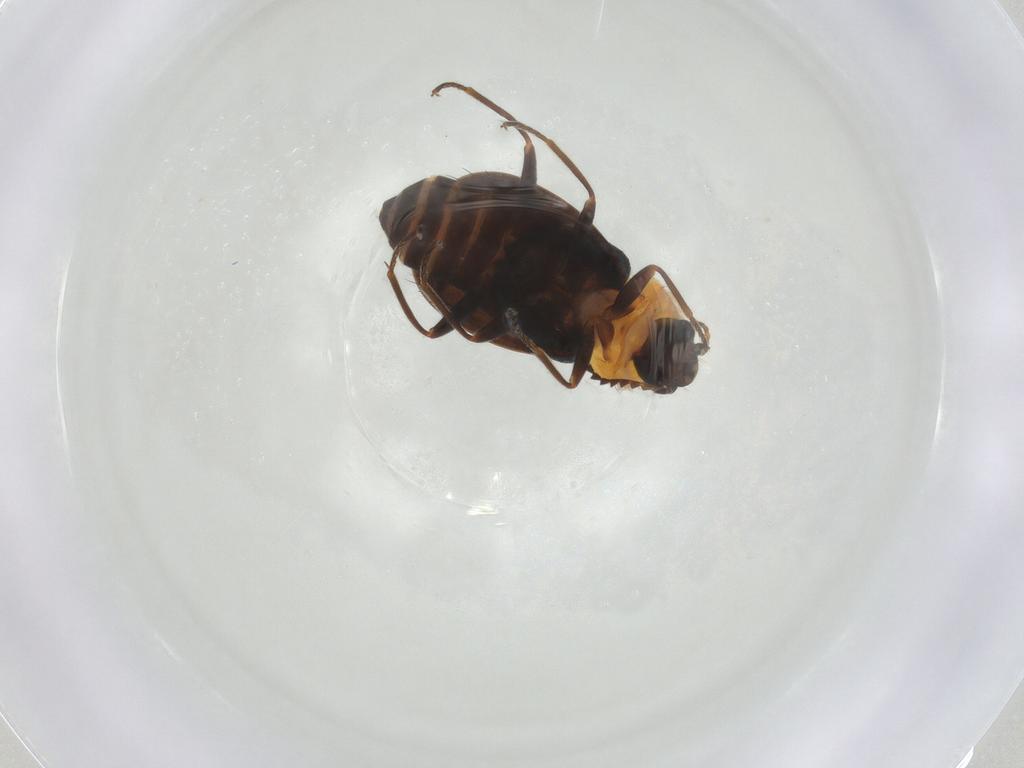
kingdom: Animalia
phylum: Arthropoda
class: Insecta
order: Coleoptera
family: Melyridae
